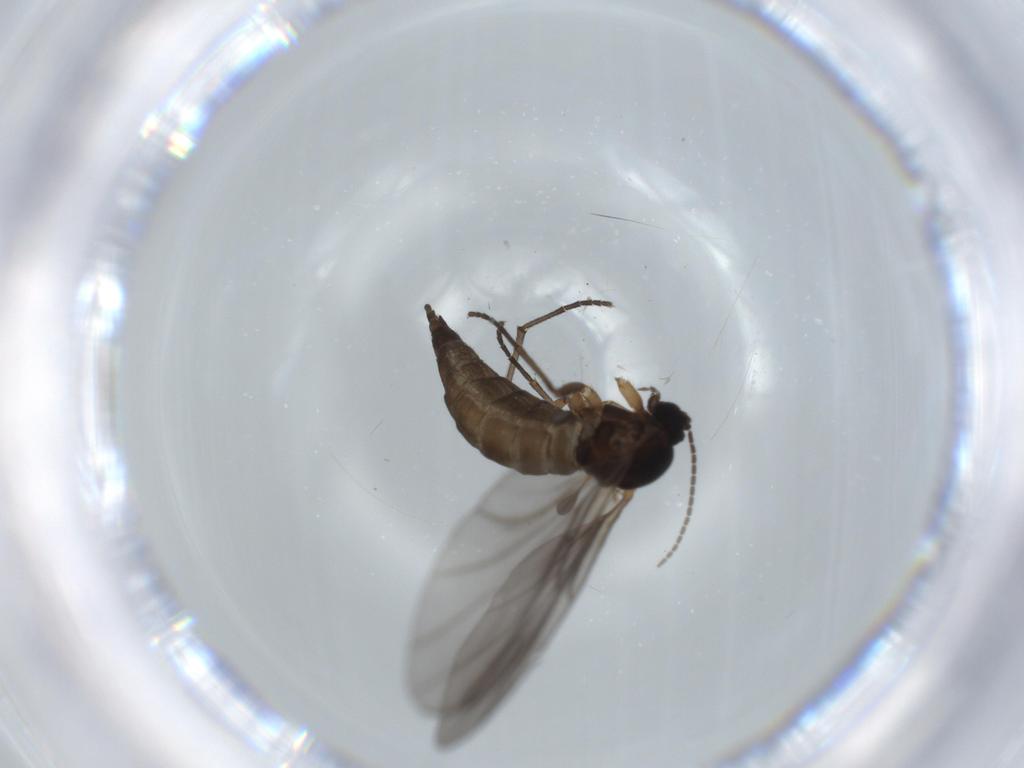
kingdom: Animalia
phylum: Arthropoda
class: Insecta
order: Diptera
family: Sciaridae
